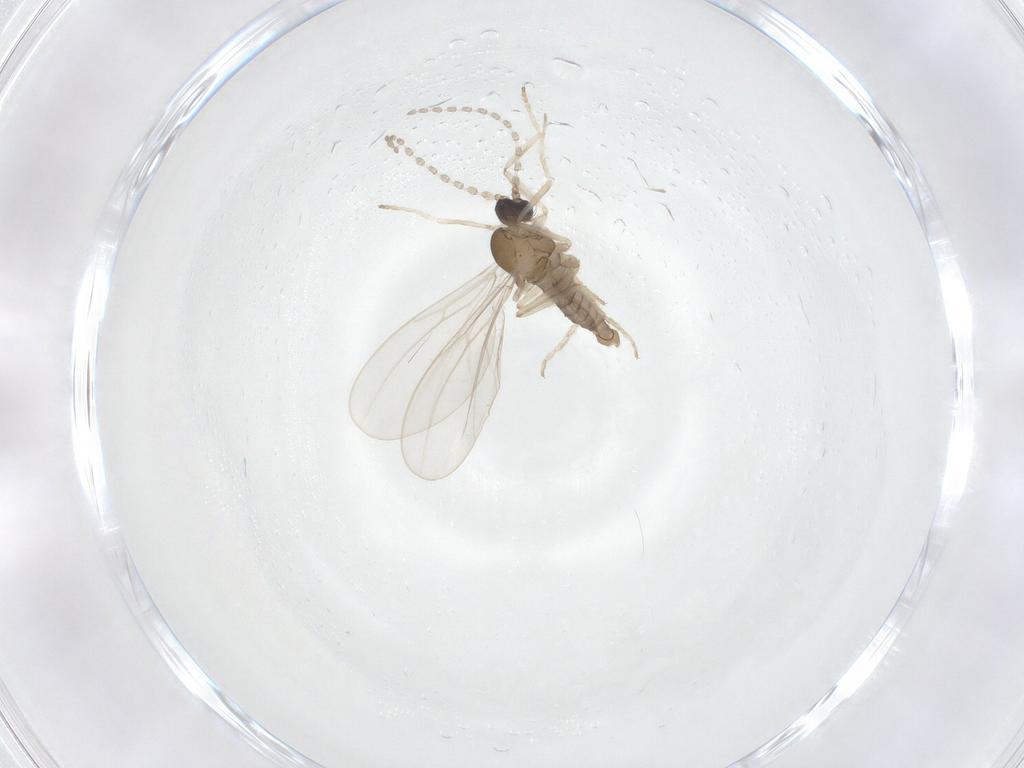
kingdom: Animalia
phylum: Arthropoda
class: Insecta
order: Diptera
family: Cecidomyiidae
